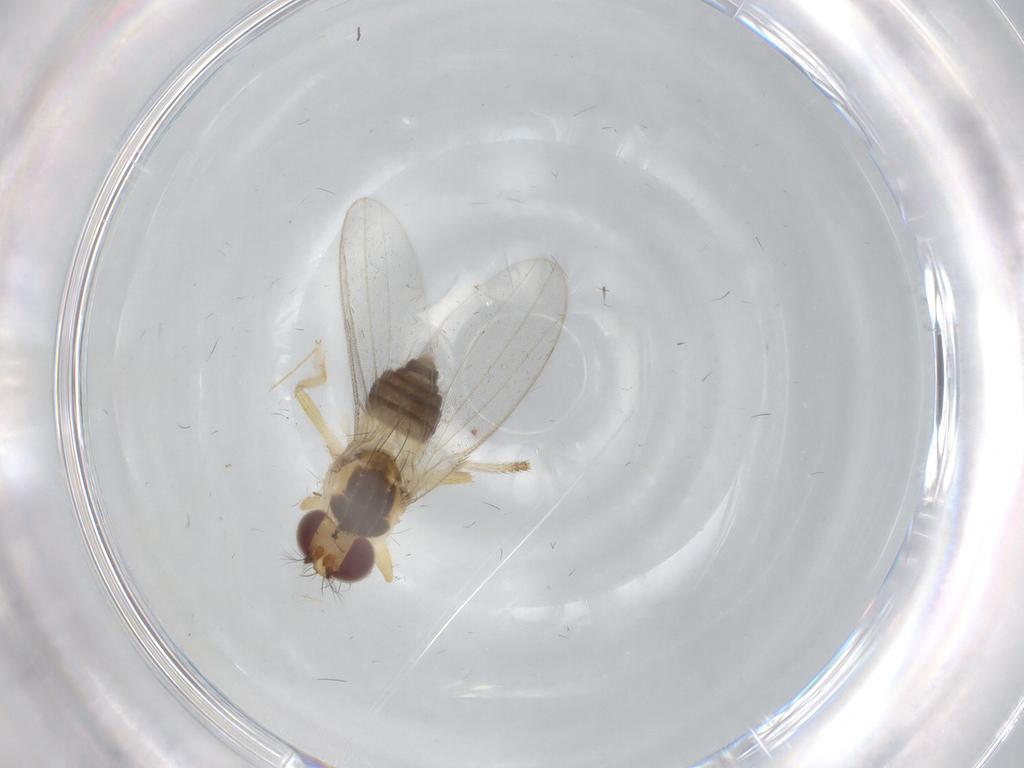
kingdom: Animalia
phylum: Arthropoda
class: Insecta
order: Diptera
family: Periscelididae
